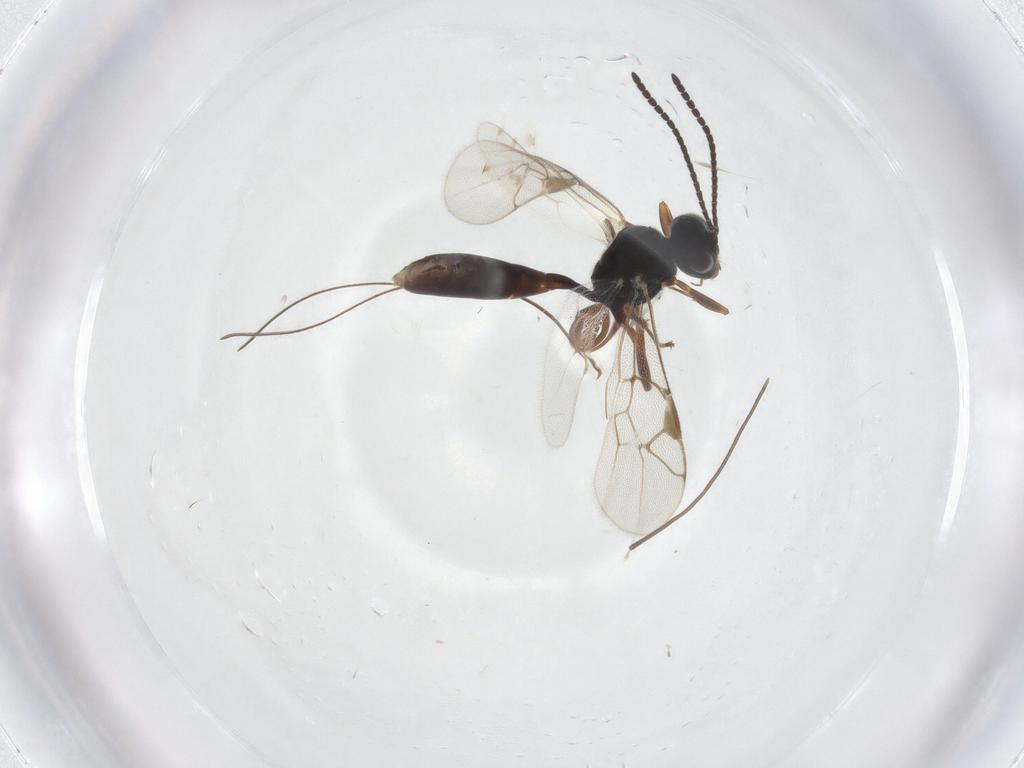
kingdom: Animalia
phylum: Arthropoda
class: Insecta
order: Hymenoptera
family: Ichneumonidae
